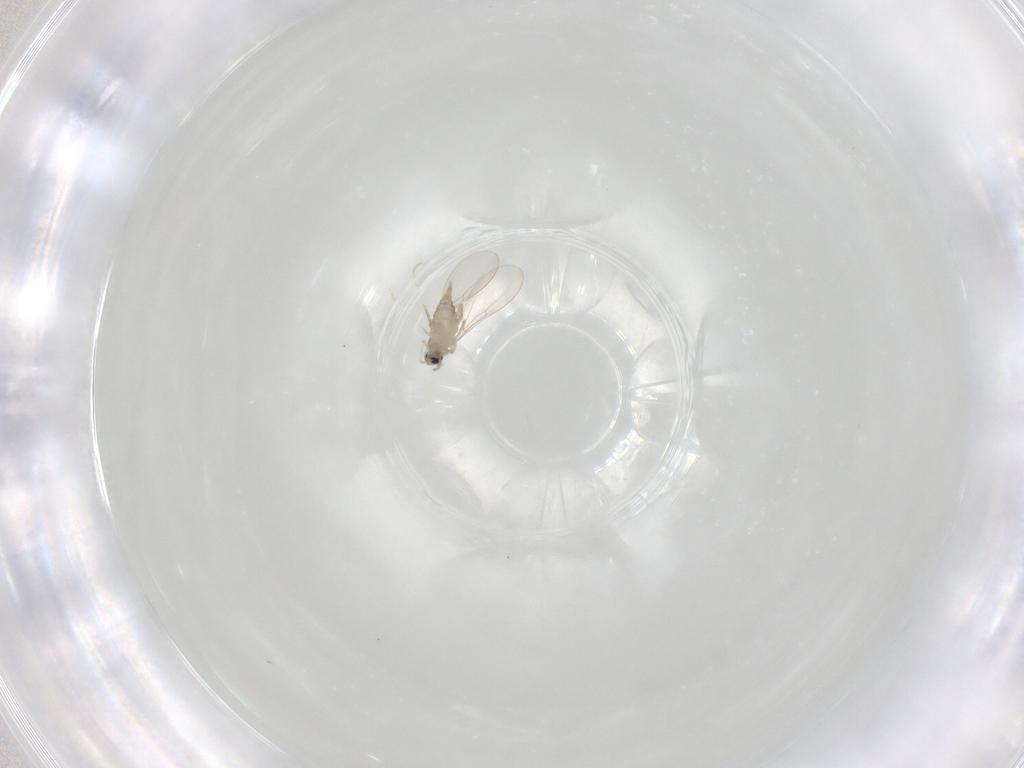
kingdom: Animalia
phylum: Arthropoda
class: Insecta
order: Diptera
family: Cecidomyiidae
